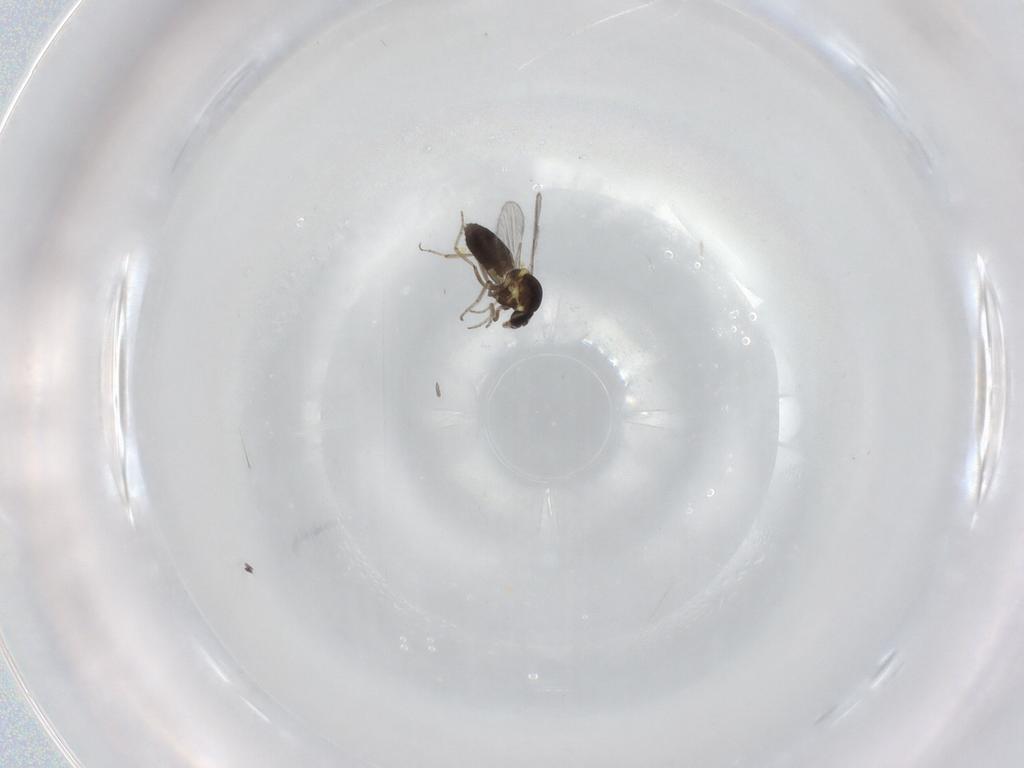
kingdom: Animalia
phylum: Arthropoda
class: Insecta
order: Diptera
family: Ceratopogonidae
